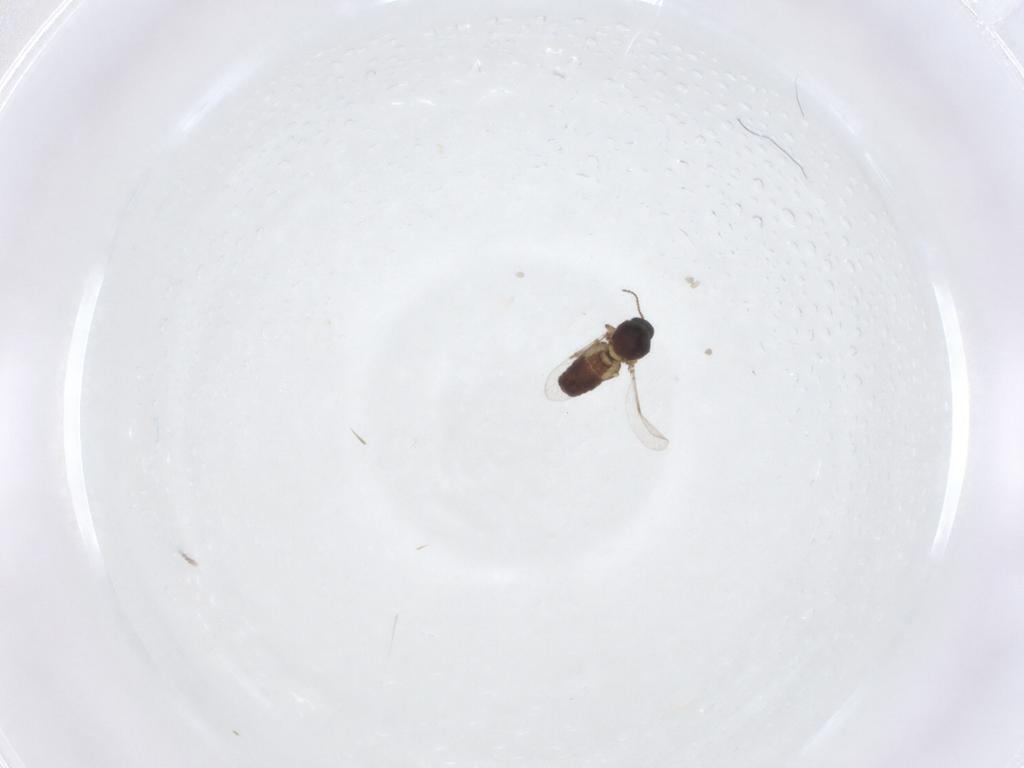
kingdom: Animalia
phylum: Arthropoda
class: Insecta
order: Diptera
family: Ceratopogonidae
